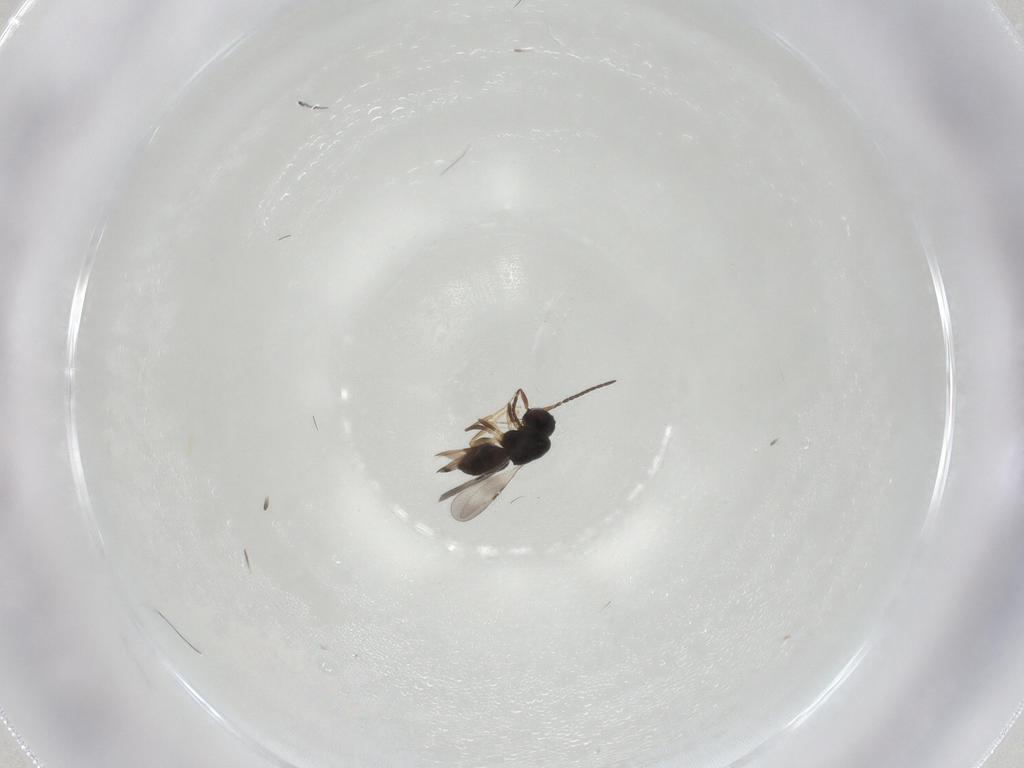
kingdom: Animalia
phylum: Arthropoda
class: Insecta
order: Hymenoptera
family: Ceraphronidae
